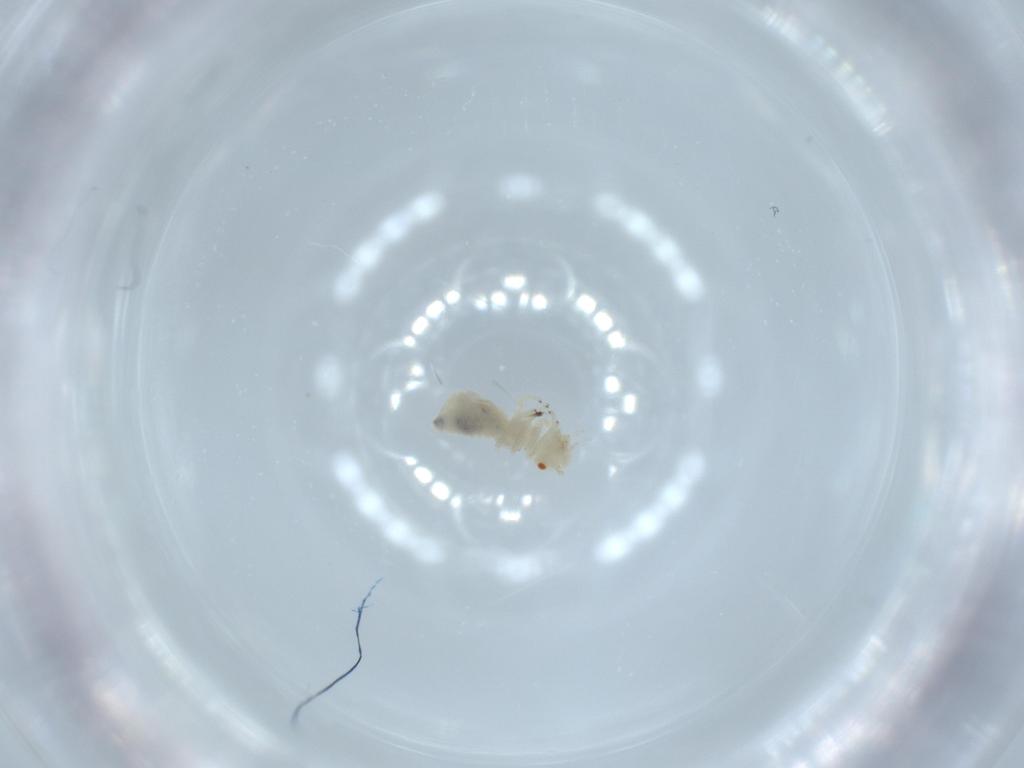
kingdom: Animalia
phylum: Arthropoda
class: Insecta
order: Psocodea
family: Caeciliusidae
